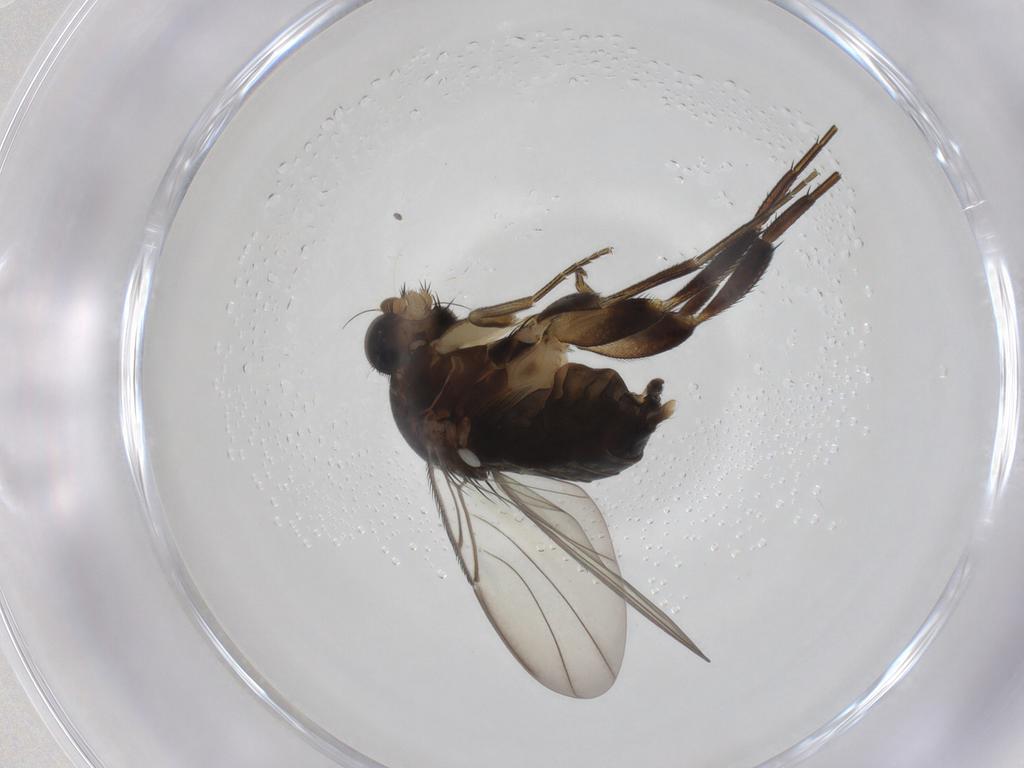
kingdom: Animalia
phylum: Arthropoda
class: Insecta
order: Diptera
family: Phoridae
